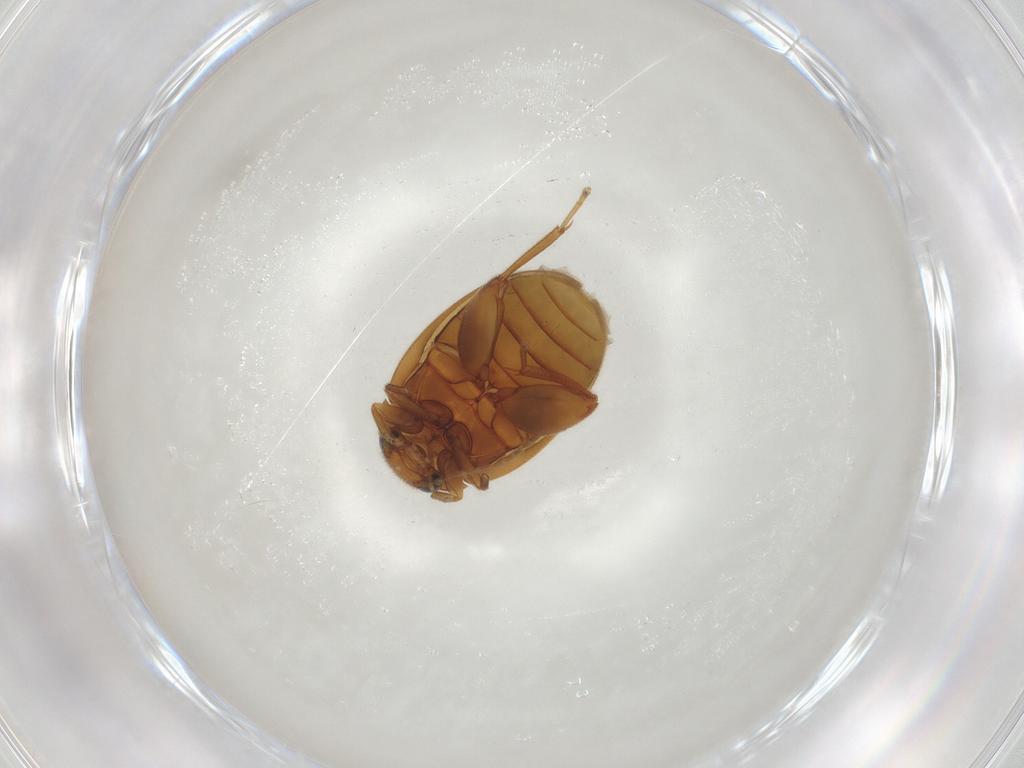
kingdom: Animalia
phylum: Arthropoda
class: Insecta
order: Coleoptera
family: Scirtidae
